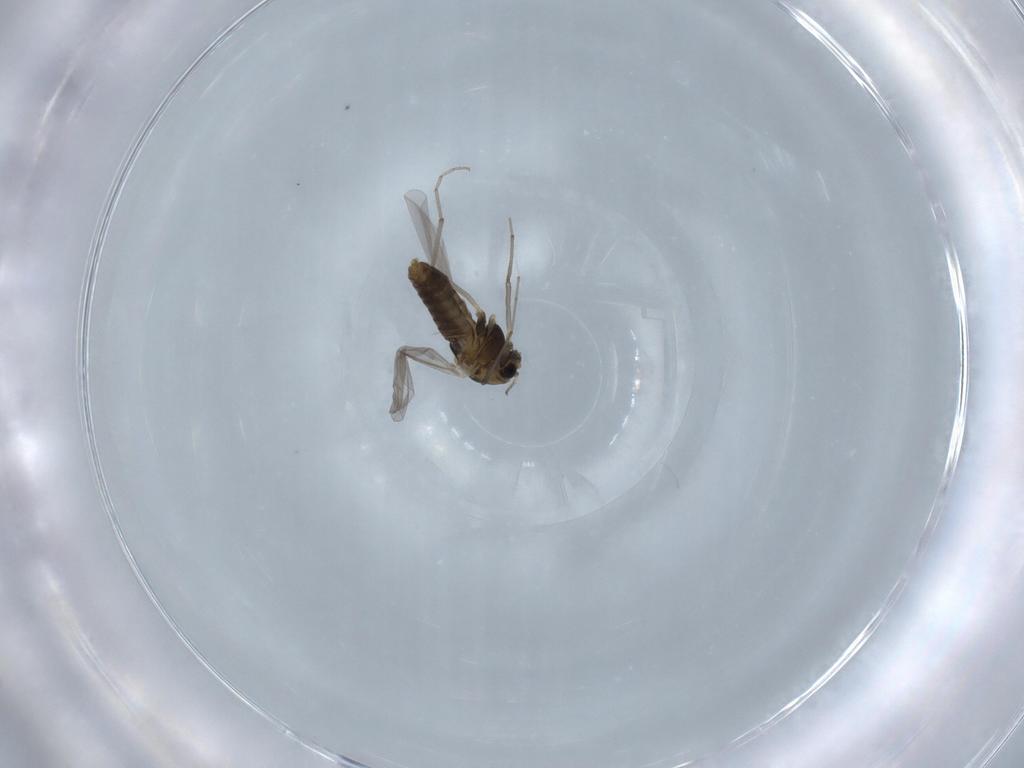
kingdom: Animalia
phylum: Arthropoda
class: Insecta
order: Diptera
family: Chironomidae
